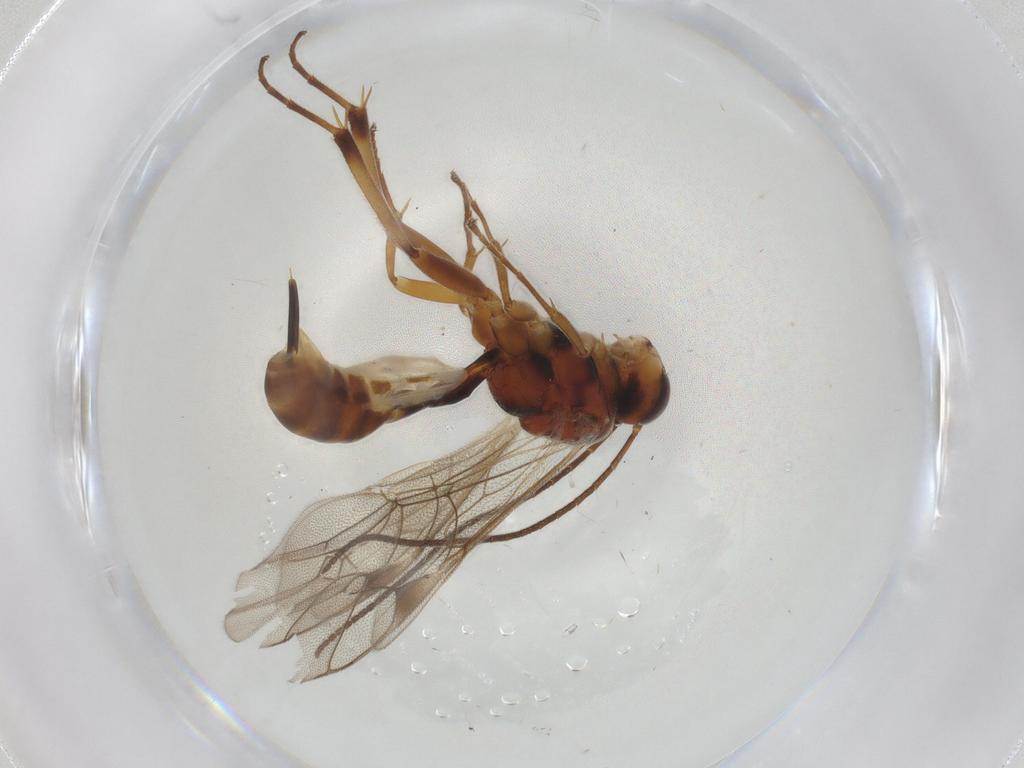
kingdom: Animalia
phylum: Arthropoda
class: Insecta
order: Hymenoptera
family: Ichneumonidae
